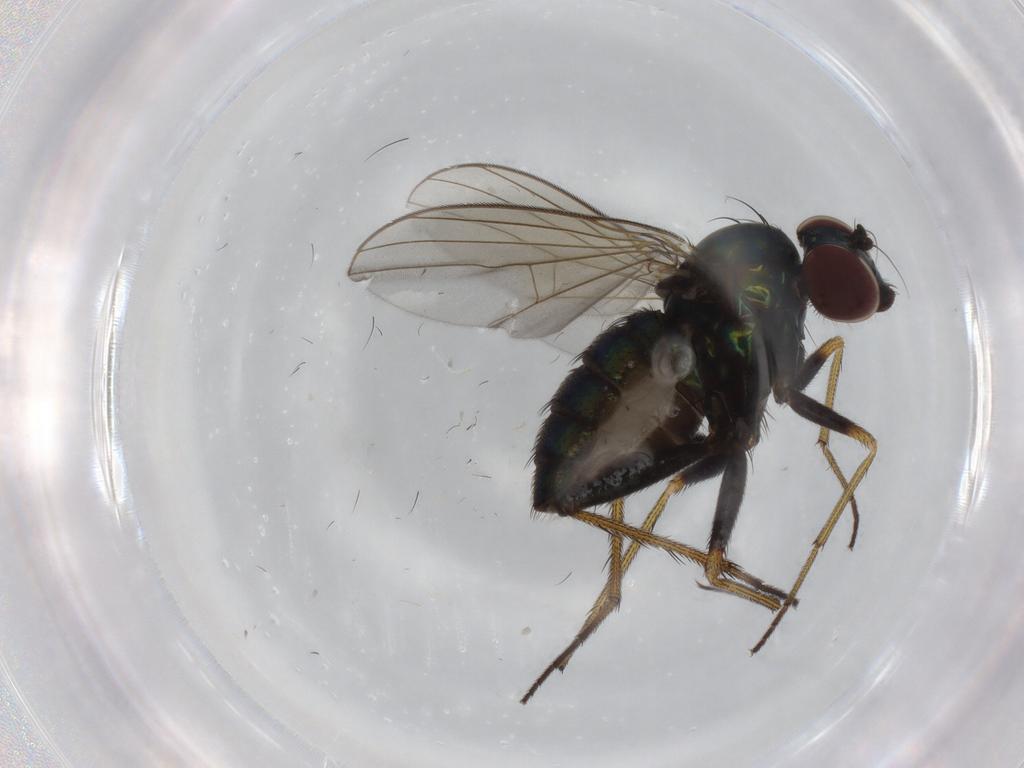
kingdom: Animalia
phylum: Arthropoda
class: Insecta
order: Diptera
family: Dolichopodidae
